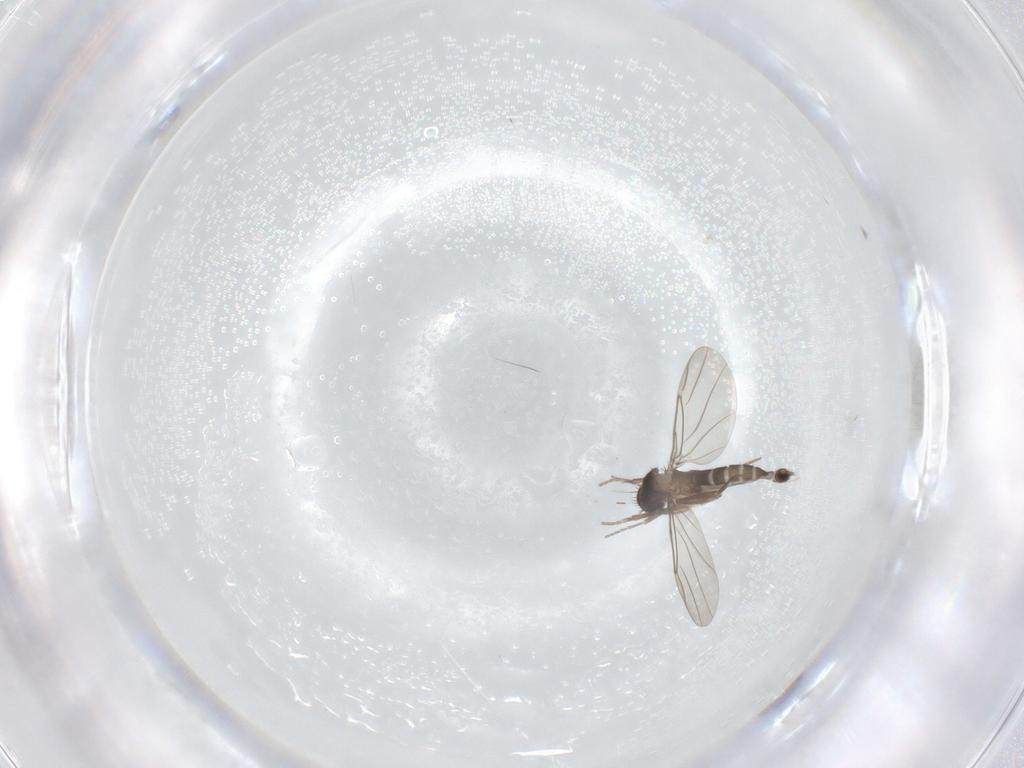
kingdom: Animalia
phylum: Arthropoda
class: Insecta
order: Diptera
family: Phoridae
